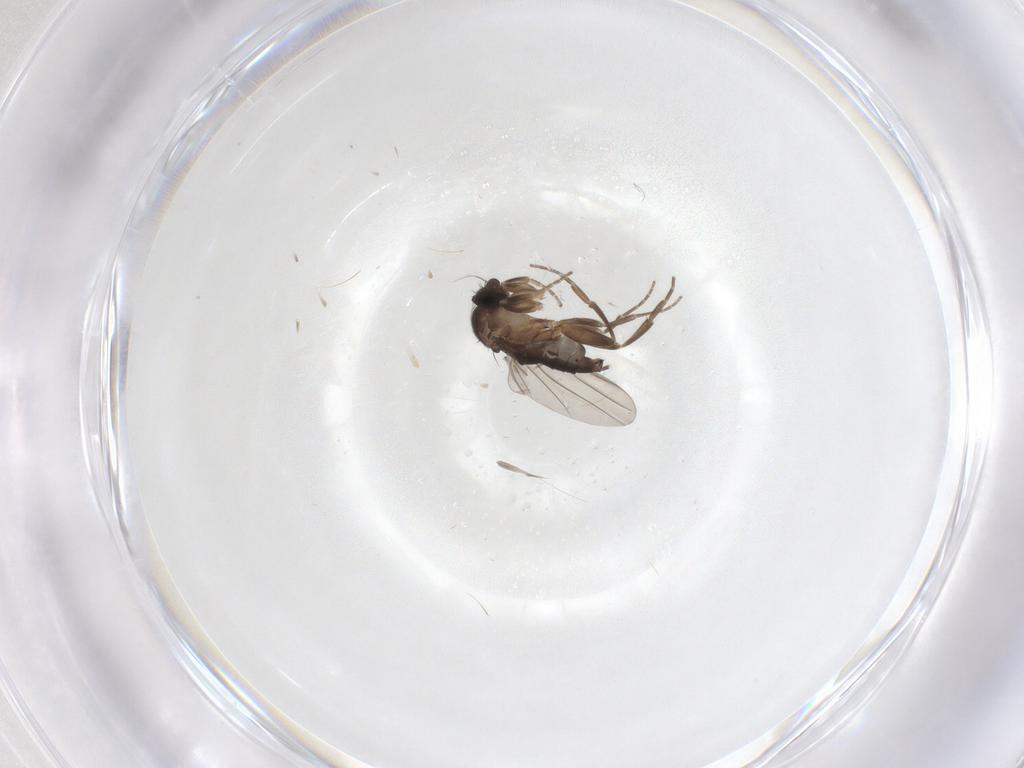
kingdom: Animalia
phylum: Arthropoda
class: Insecta
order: Diptera
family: Phoridae
